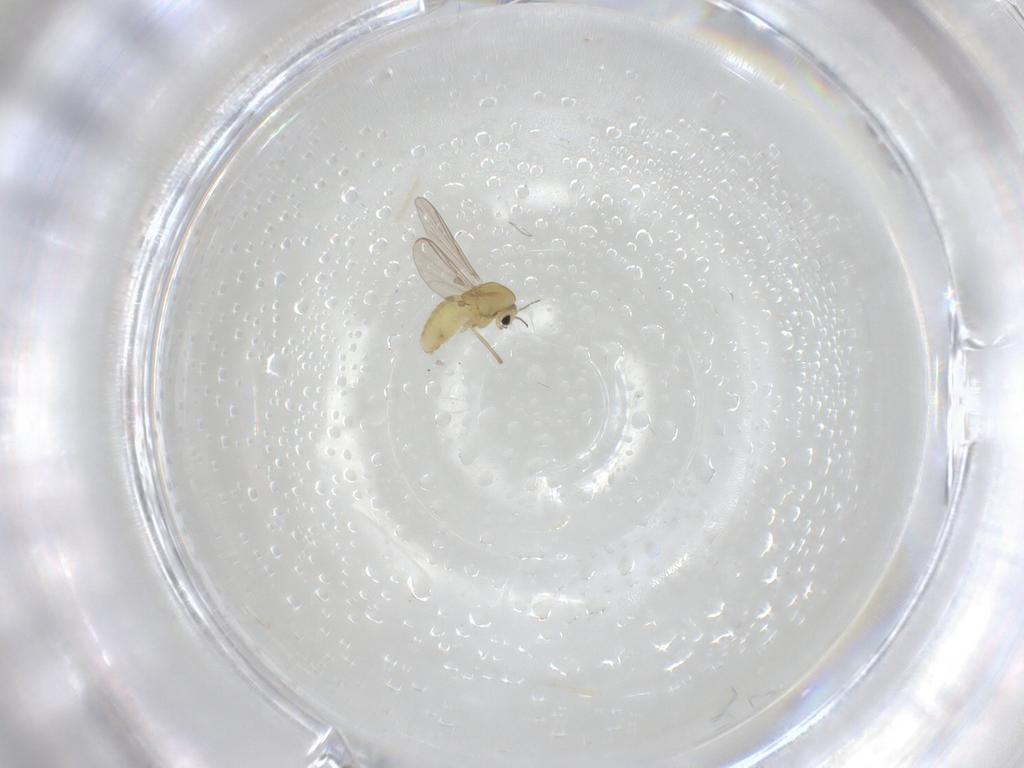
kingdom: Animalia
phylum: Arthropoda
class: Insecta
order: Diptera
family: Chironomidae
